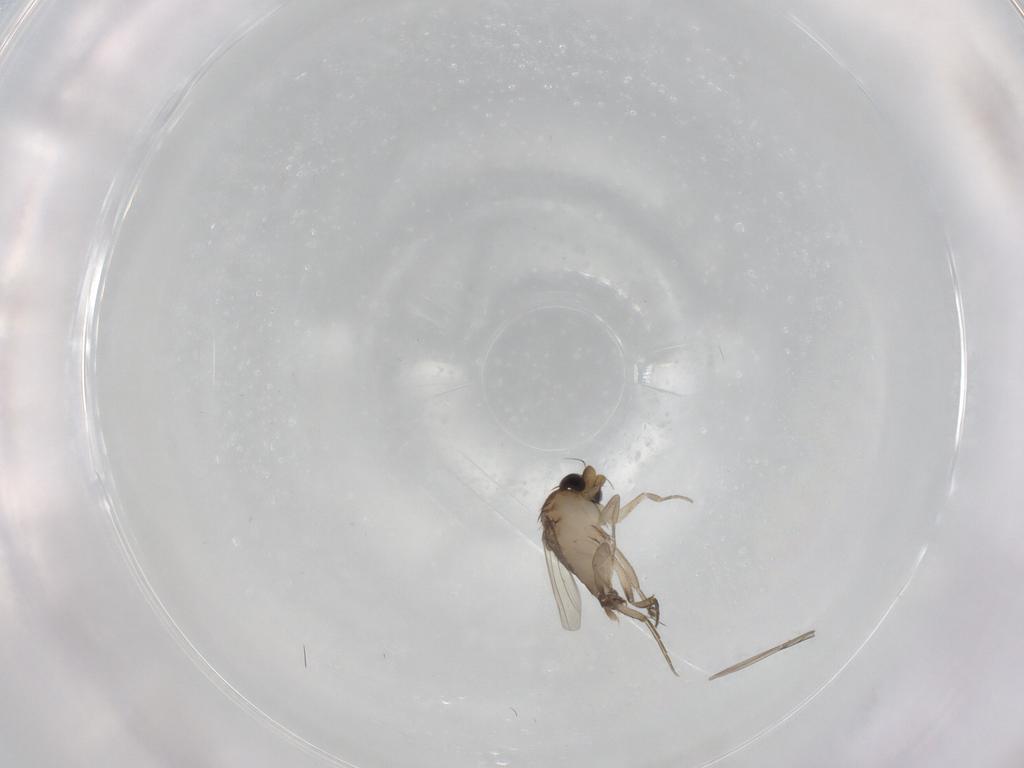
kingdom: Animalia
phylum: Arthropoda
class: Insecta
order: Diptera
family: Phoridae
